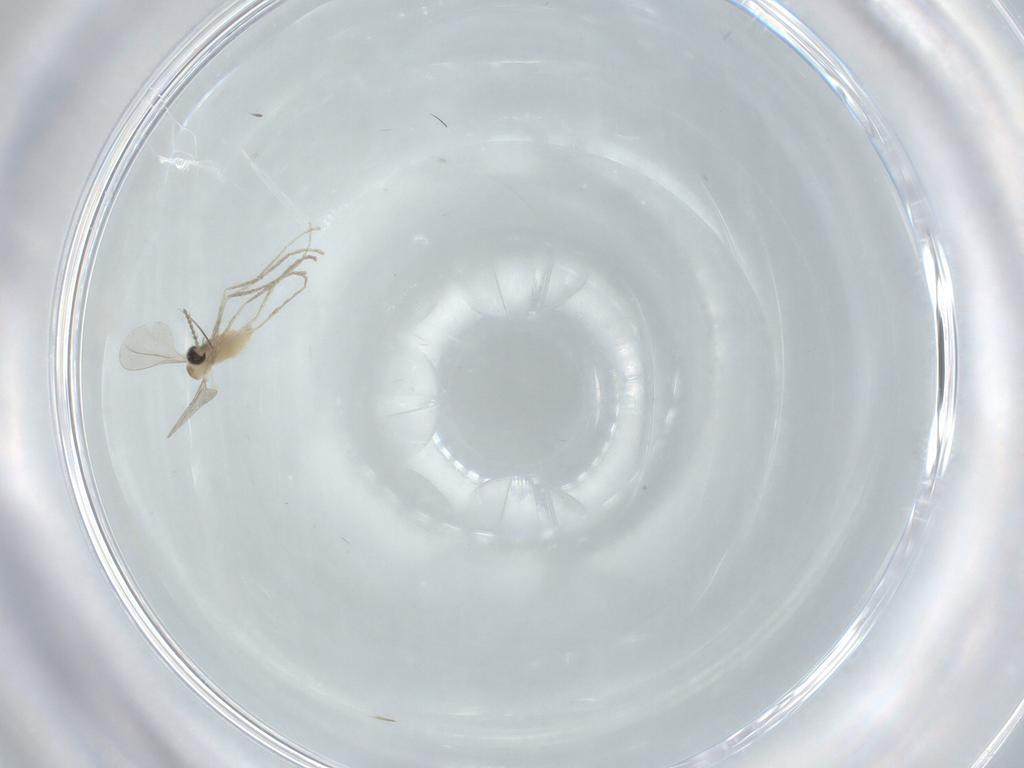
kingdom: Animalia
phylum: Arthropoda
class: Insecta
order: Diptera
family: Cecidomyiidae
